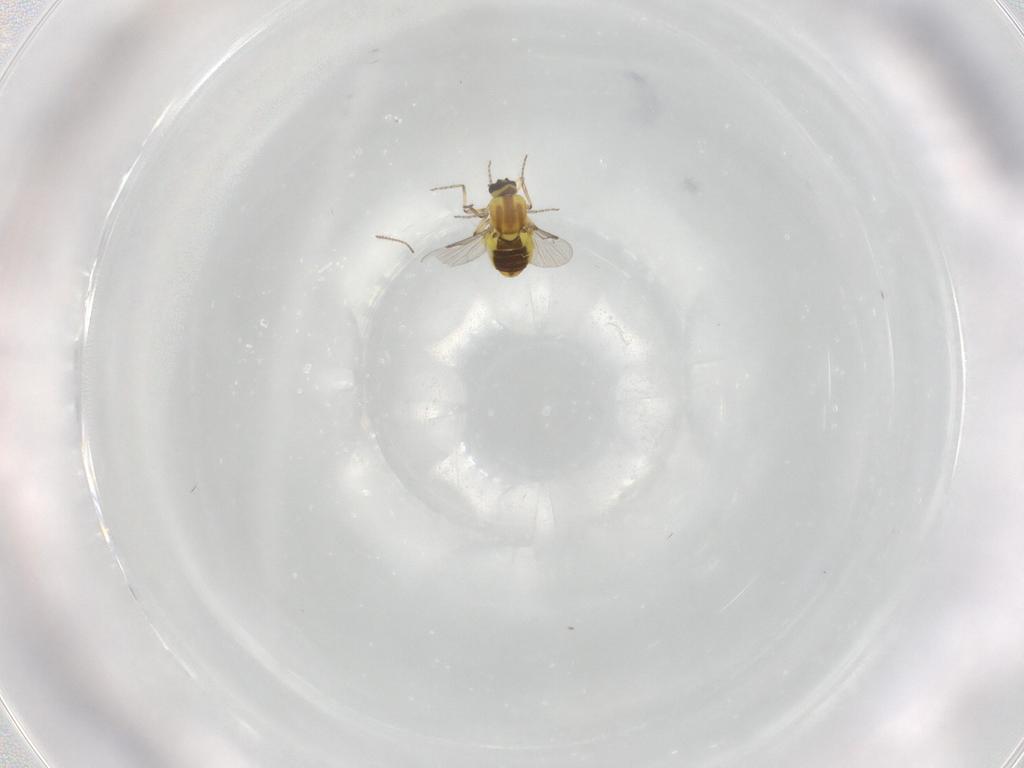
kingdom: Animalia
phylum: Arthropoda
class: Insecta
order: Diptera
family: Ceratopogonidae
